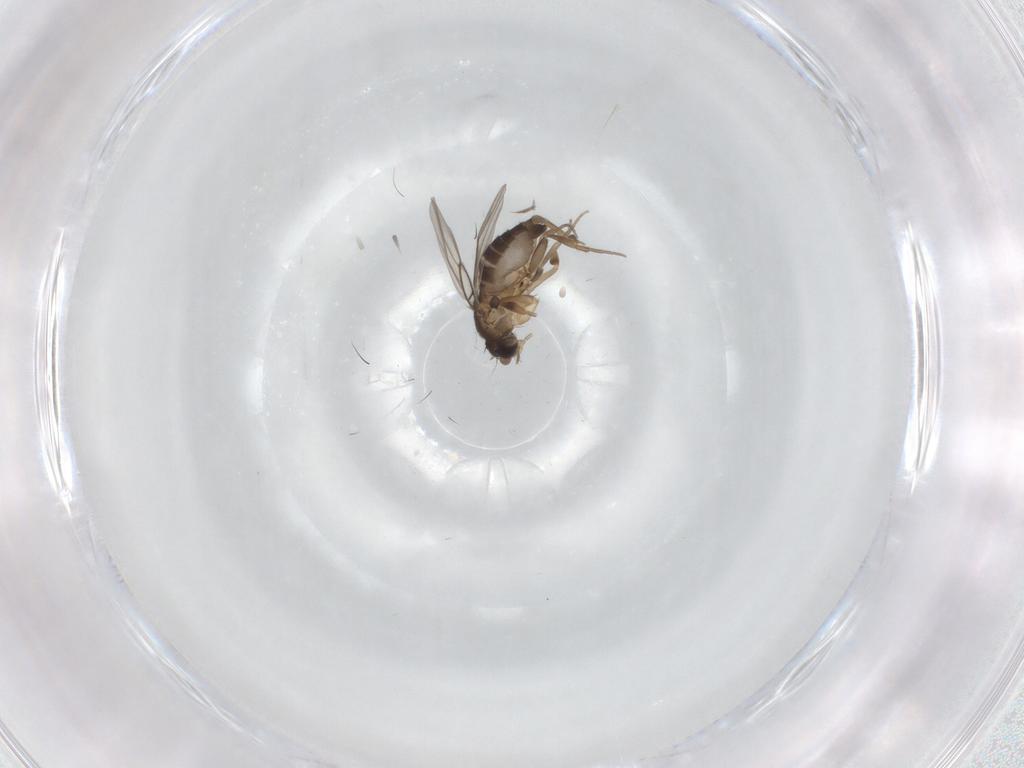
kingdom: Animalia
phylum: Arthropoda
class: Insecta
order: Diptera
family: Phoridae
